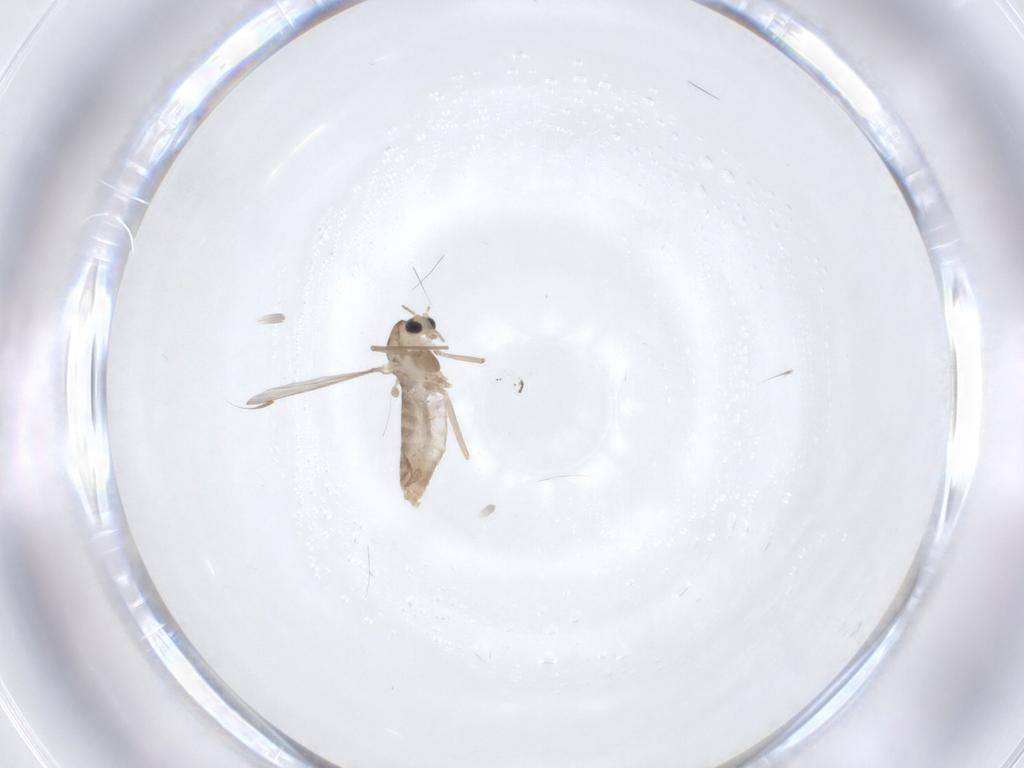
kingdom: Animalia
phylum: Arthropoda
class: Insecta
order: Diptera
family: Chironomidae
